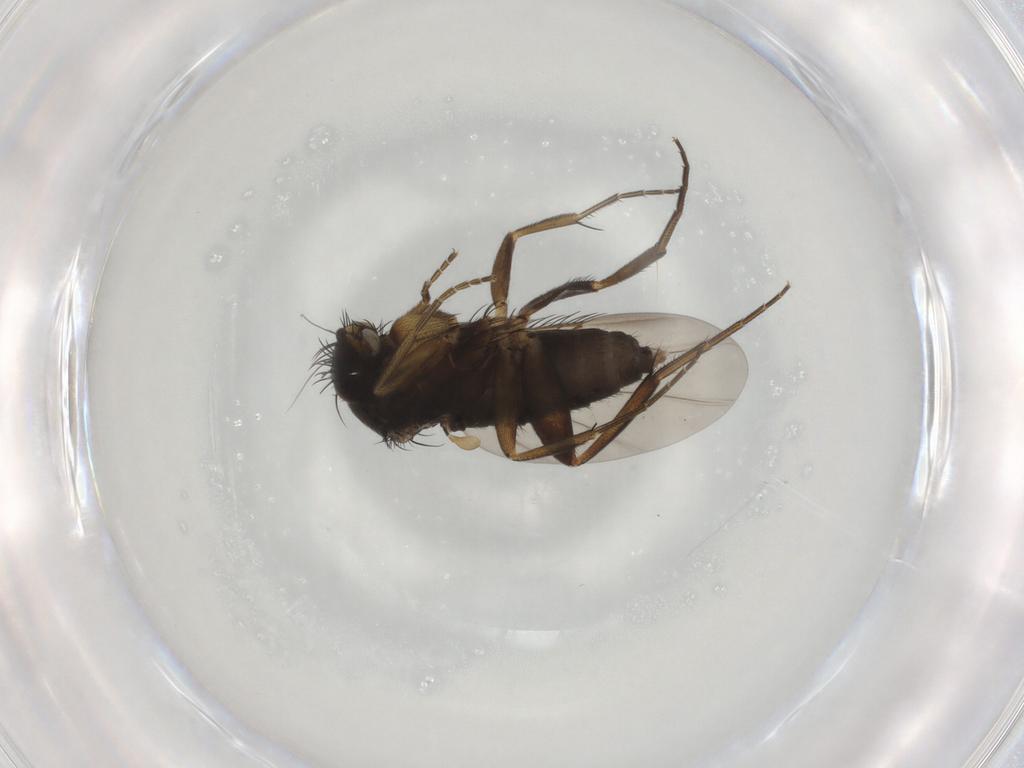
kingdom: Animalia
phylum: Arthropoda
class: Insecta
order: Diptera
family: Phoridae
